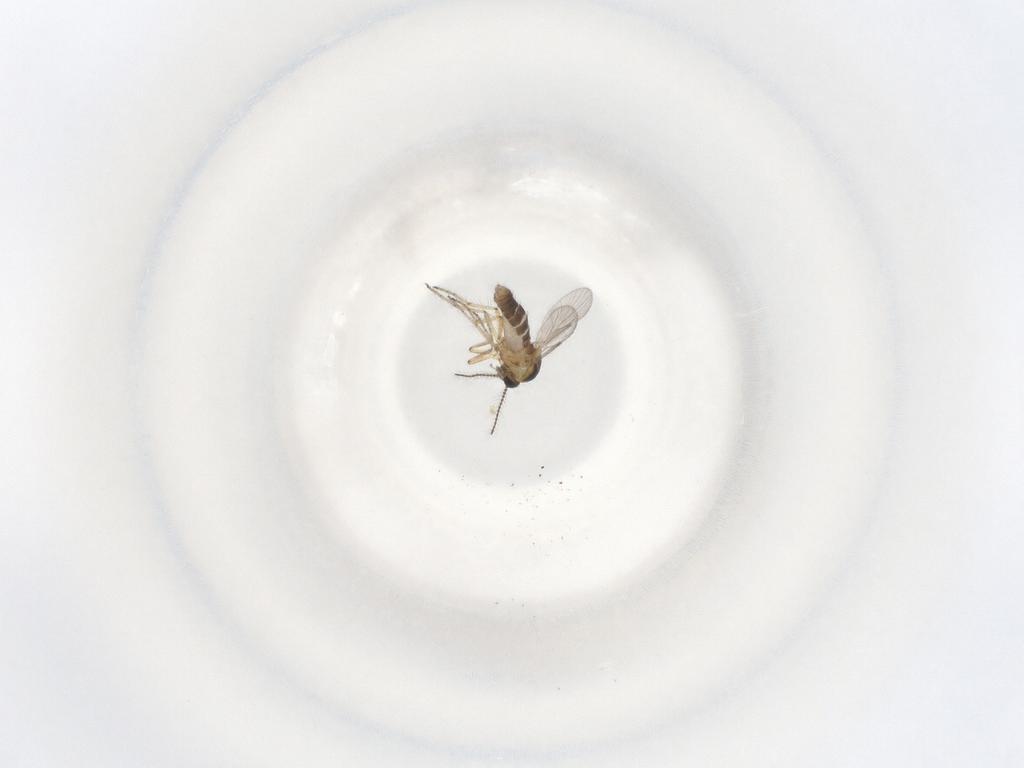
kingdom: Animalia
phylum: Arthropoda
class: Insecta
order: Diptera
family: Ceratopogonidae
